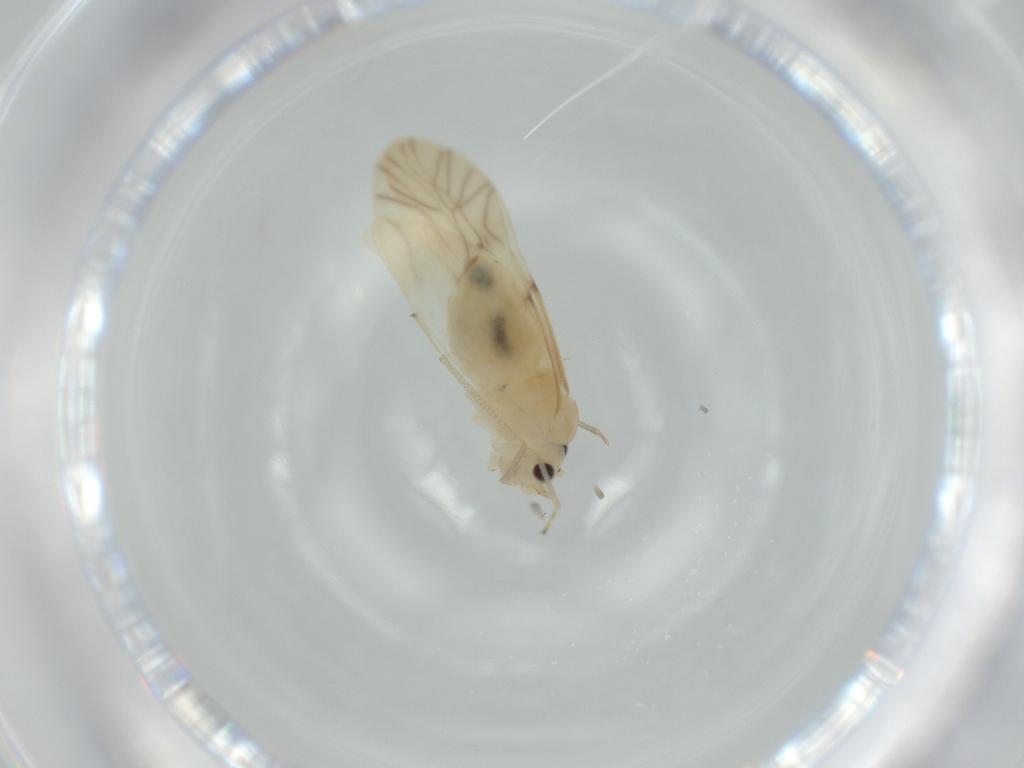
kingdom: Animalia
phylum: Arthropoda
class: Insecta
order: Psocodea
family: Caeciliusidae
